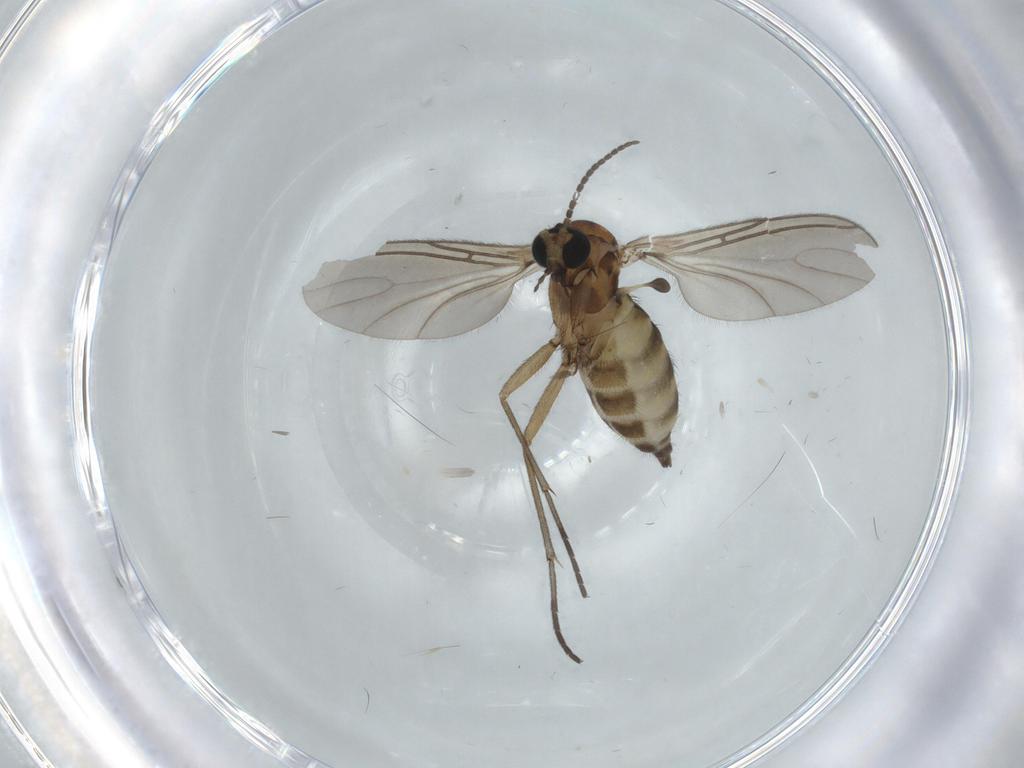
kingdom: Animalia
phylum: Arthropoda
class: Insecta
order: Diptera
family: Sciaridae
